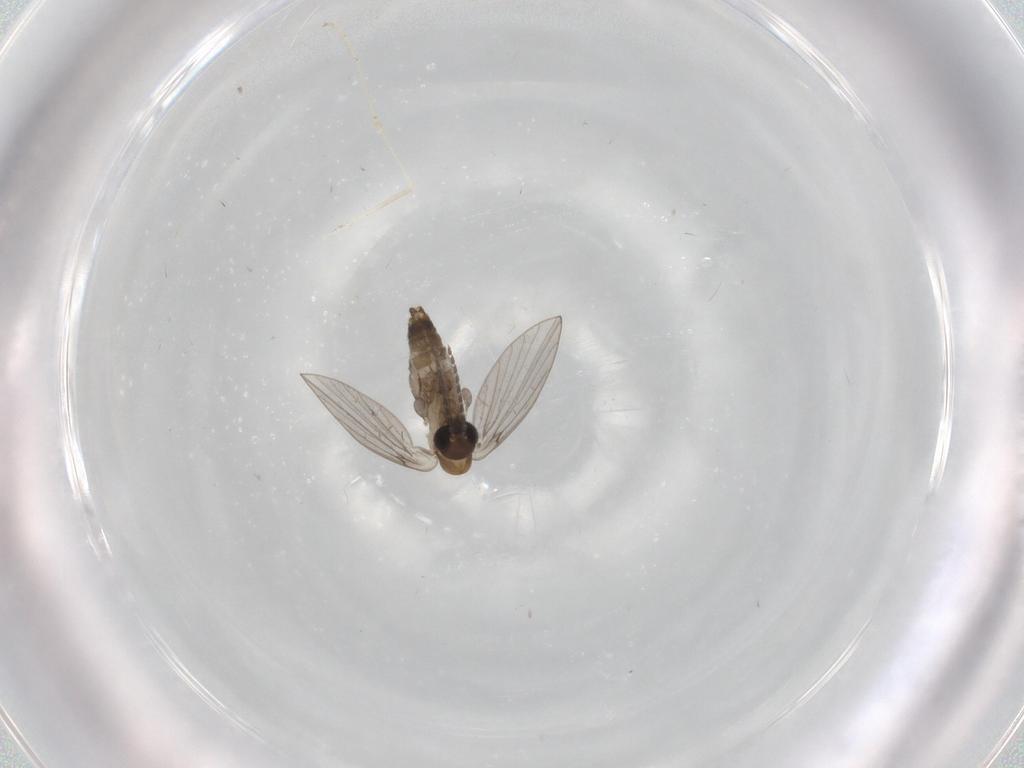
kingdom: Animalia
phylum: Arthropoda
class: Insecta
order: Diptera
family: Psychodidae
